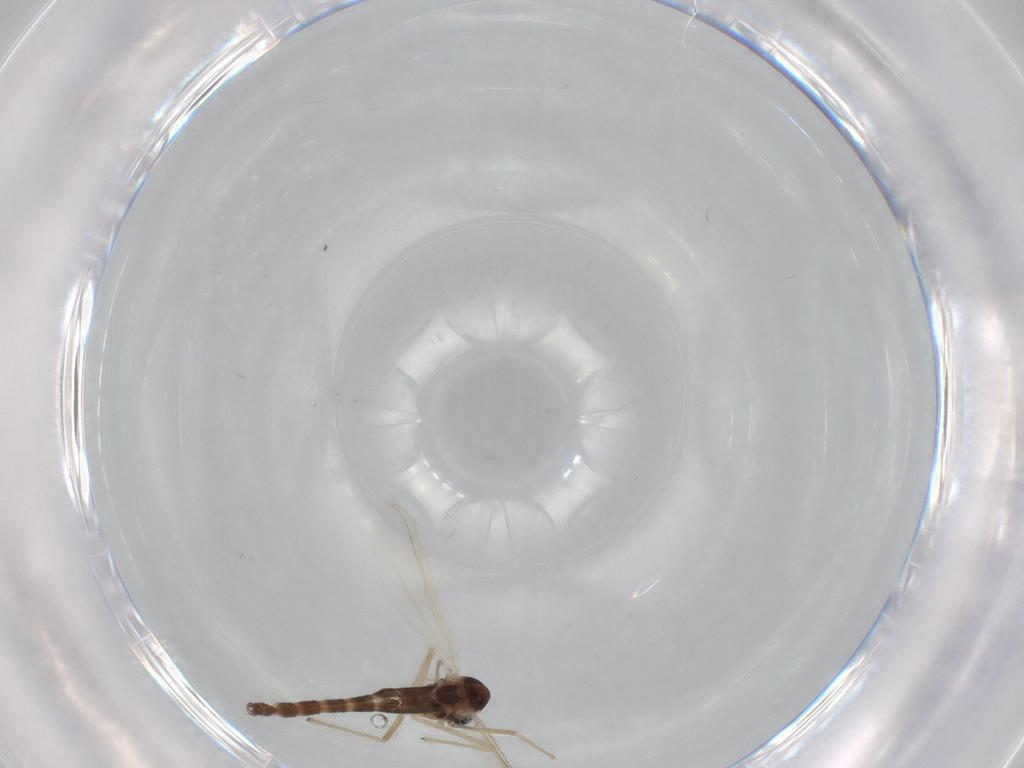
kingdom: Animalia
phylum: Arthropoda
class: Insecta
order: Diptera
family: Chironomidae
